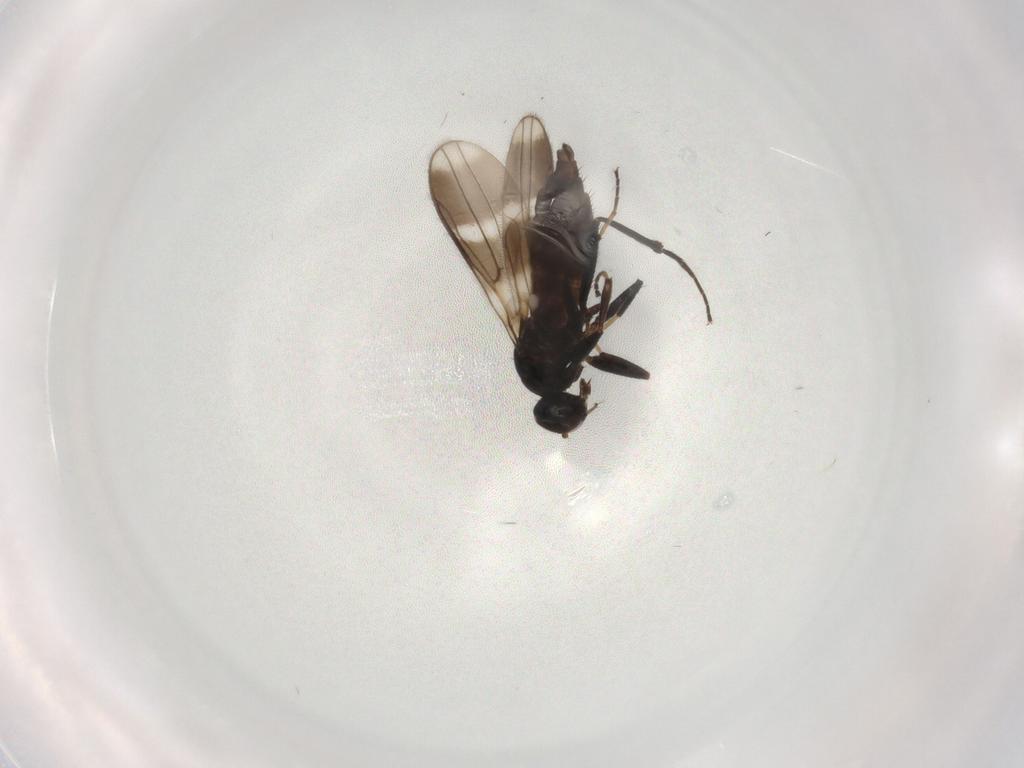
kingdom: Animalia
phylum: Arthropoda
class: Insecta
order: Diptera
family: Hybotidae
